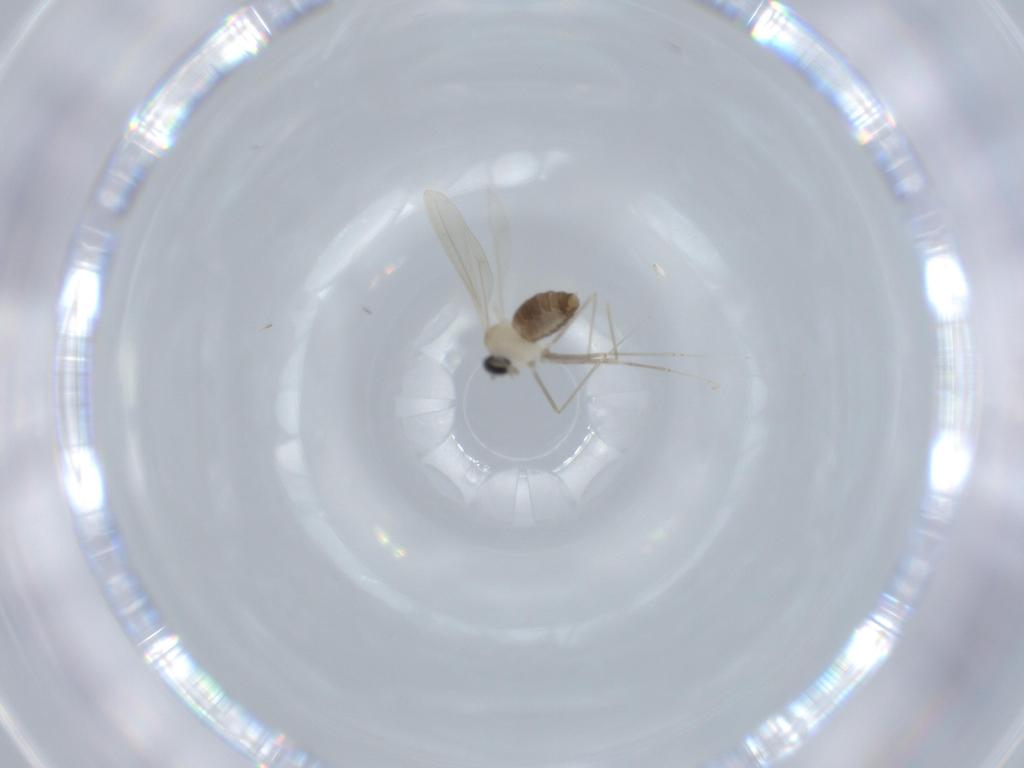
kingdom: Animalia
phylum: Arthropoda
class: Insecta
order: Diptera
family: Cecidomyiidae
